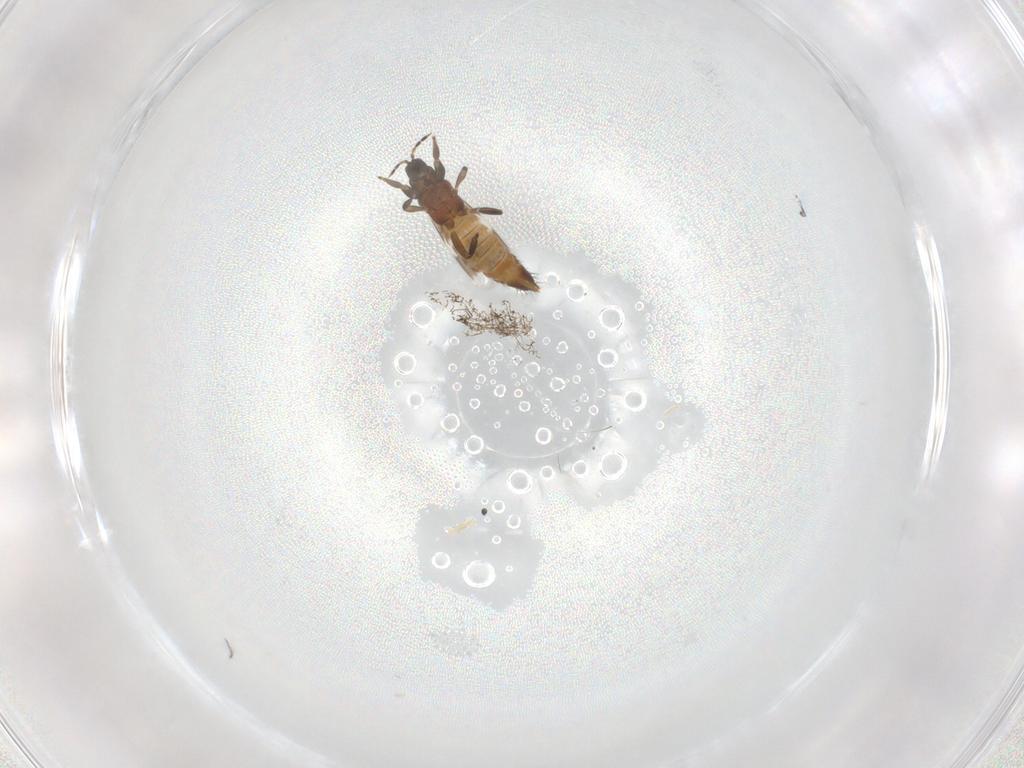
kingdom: Animalia
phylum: Arthropoda
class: Insecta
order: Thysanoptera
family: Aeolothripidae
